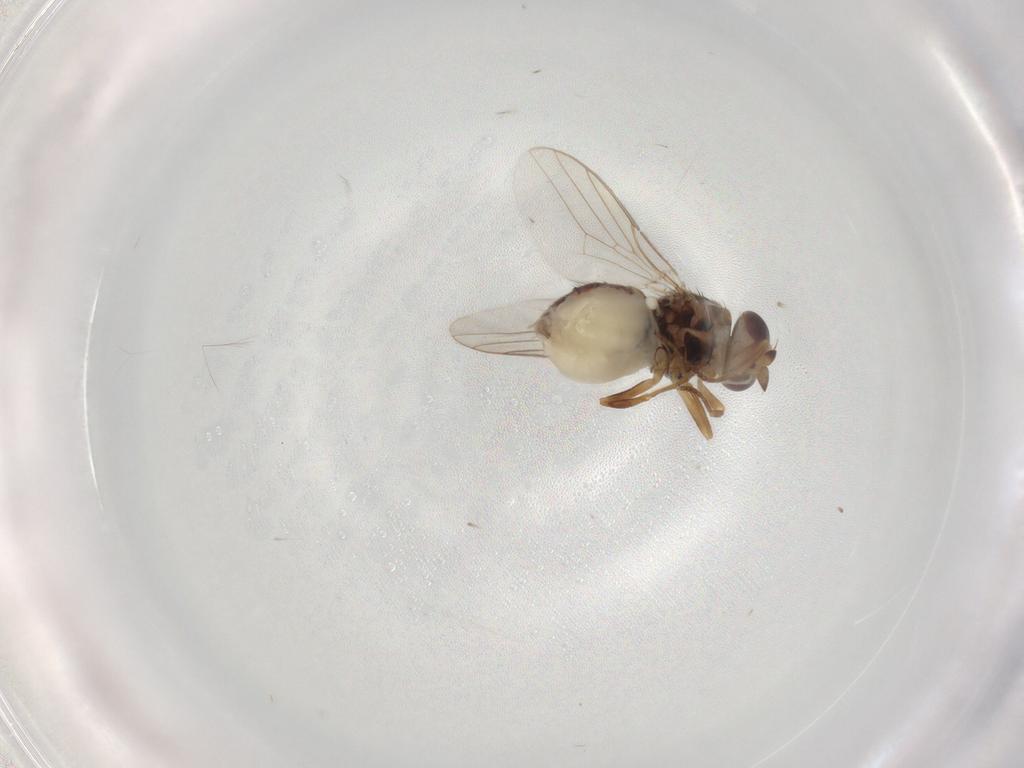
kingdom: Animalia
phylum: Arthropoda
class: Insecta
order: Diptera
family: Chloropidae
